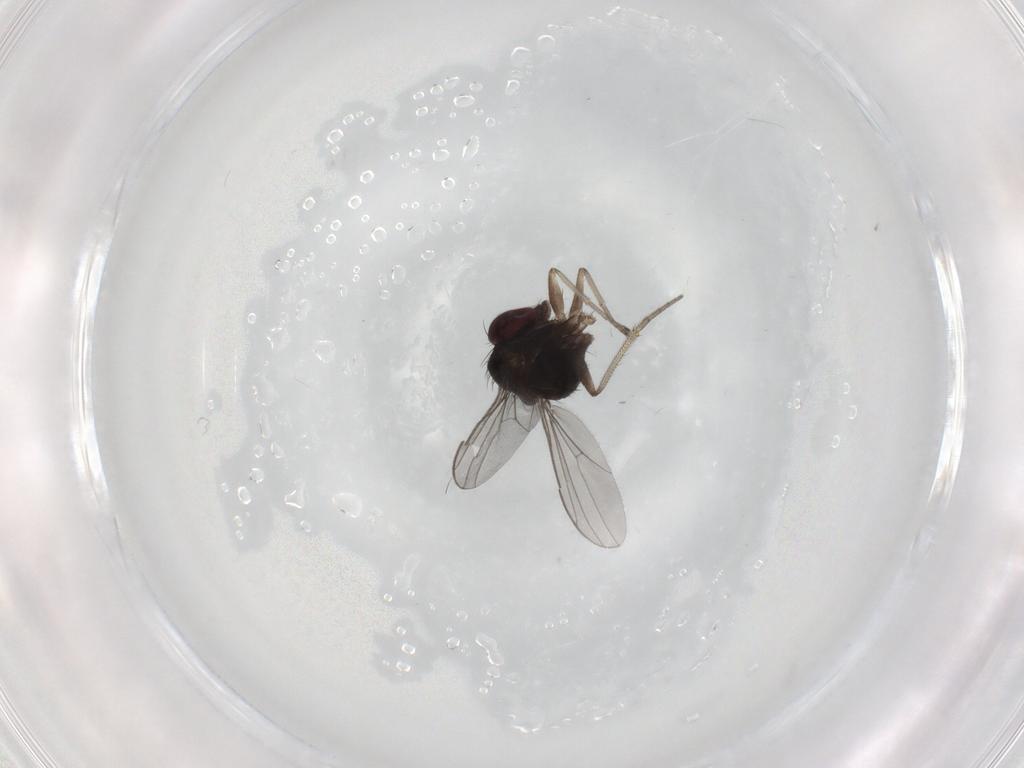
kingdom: Animalia
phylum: Arthropoda
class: Insecta
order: Diptera
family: Dolichopodidae
